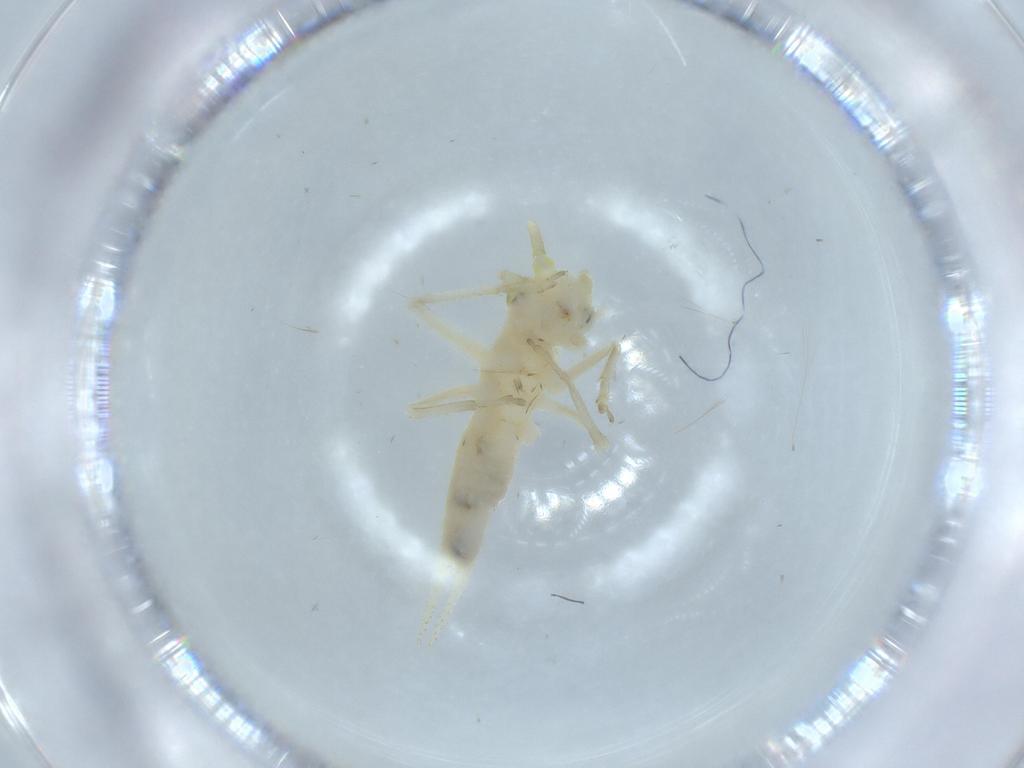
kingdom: Animalia
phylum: Arthropoda
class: Insecta
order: Orthoptera
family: Trigonidiidae
